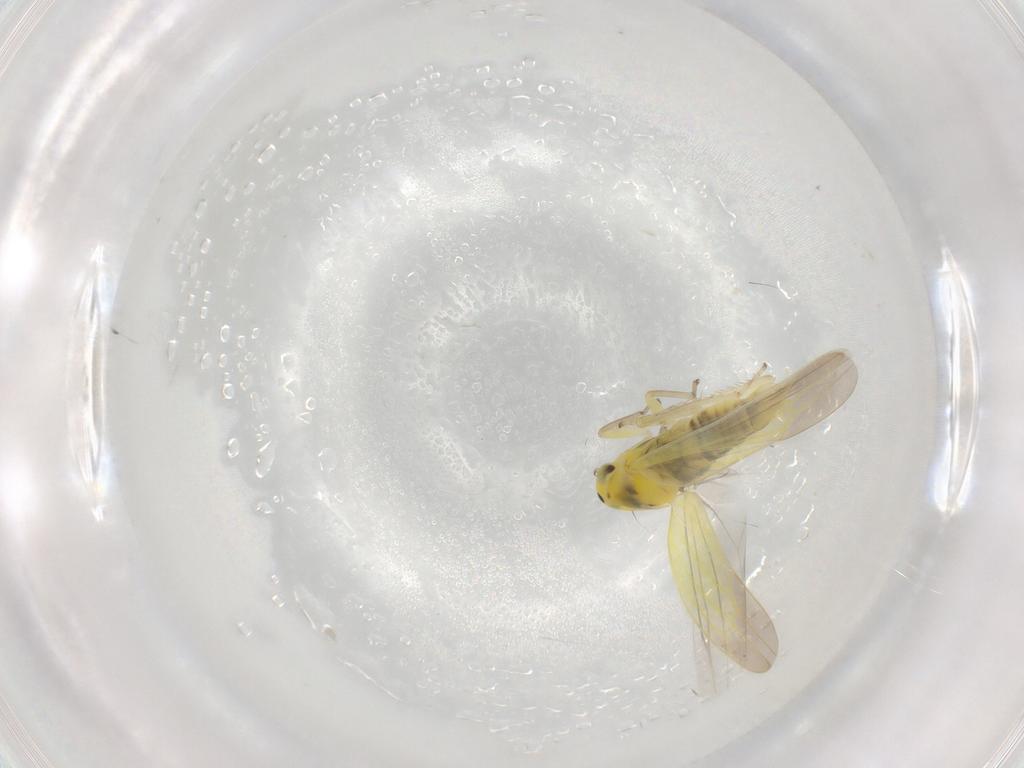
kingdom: Animalia
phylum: Arthropoda
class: Insecta
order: Hemiptera
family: Cicadellidae
